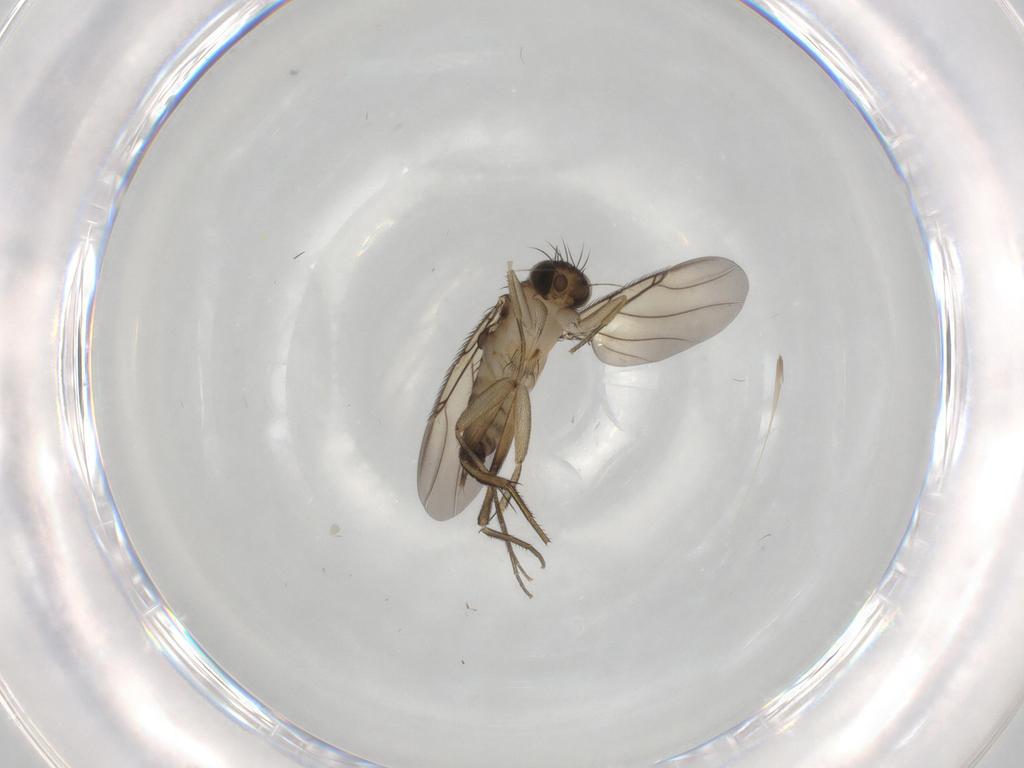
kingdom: Animalia
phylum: Arthropoda
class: Insecta
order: Diptera
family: Phoridae
